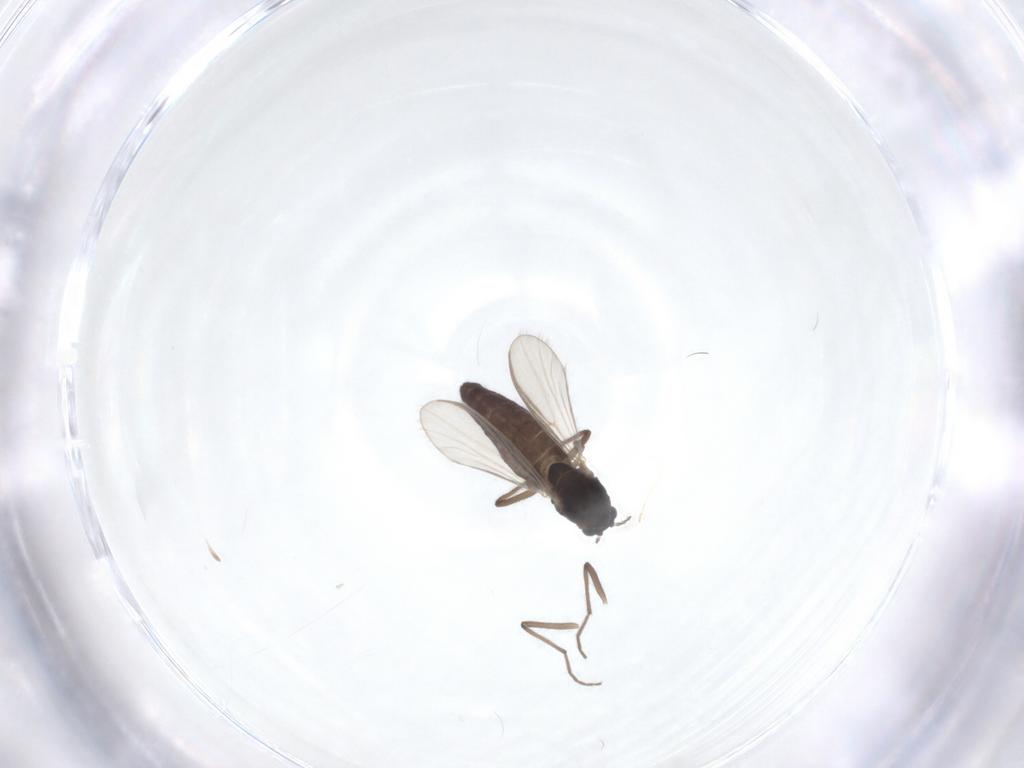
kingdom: Animalia
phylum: Arthropoda
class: Insecta
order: Diptera
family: Chironomidae
